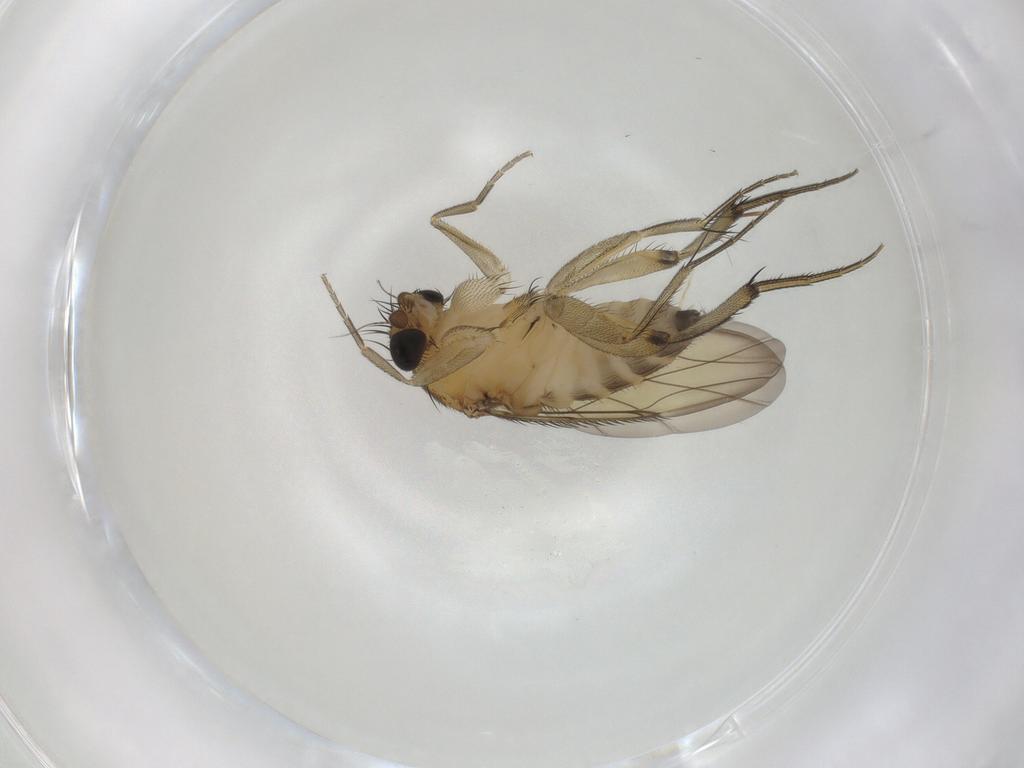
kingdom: Animalia
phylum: Arthropoda
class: Insecta
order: Diptera
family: Phoridae
